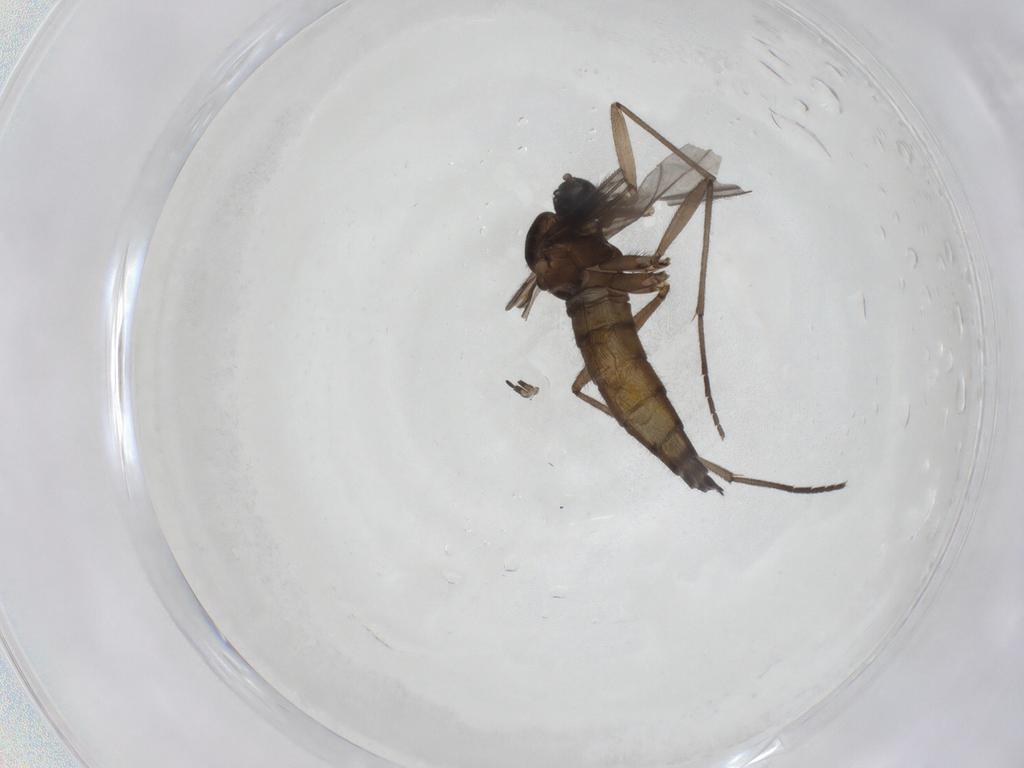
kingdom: Animalia
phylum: Arthropoda
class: Insecta
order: Diptera
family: Sciaridae
